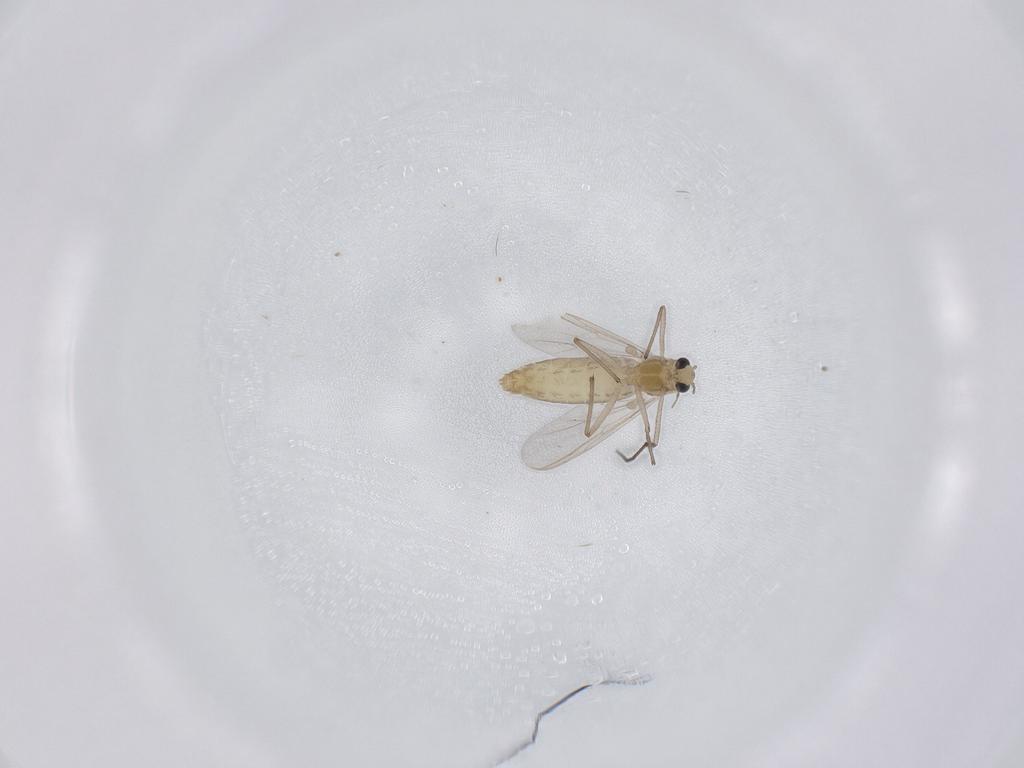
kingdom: Animalia
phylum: Arthropoda
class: Insecta
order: Diptera
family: Chironomidae
